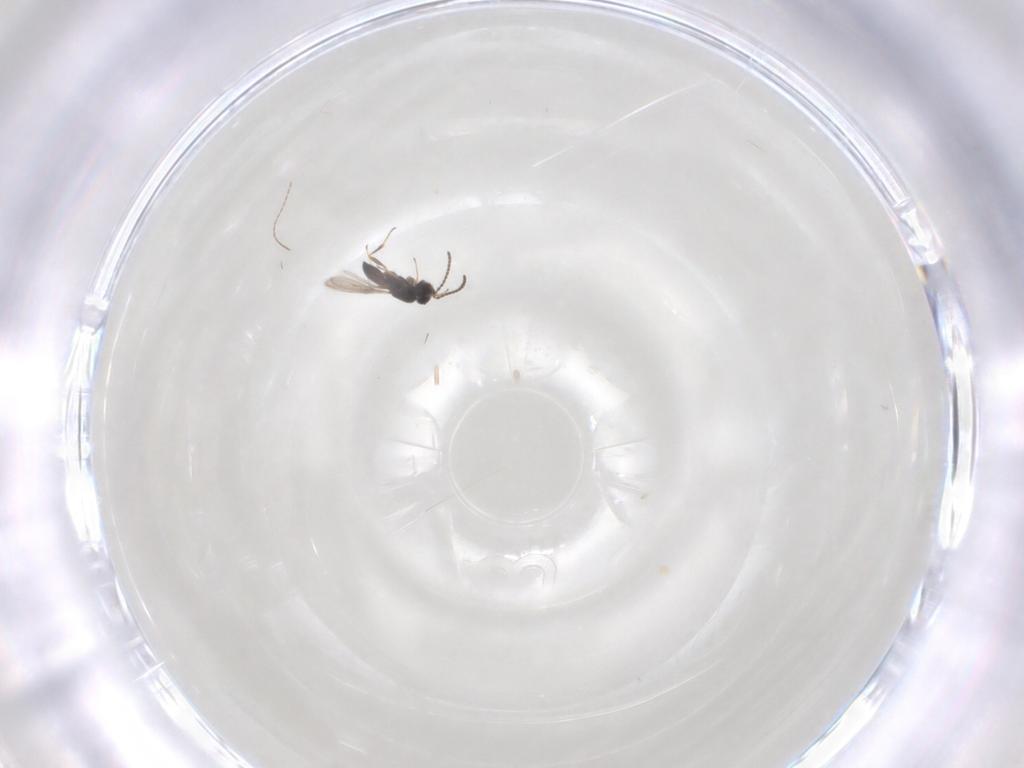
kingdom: Animalia
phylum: Arthropoda
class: Insecta
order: Hymenoptera
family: Scelionidae
